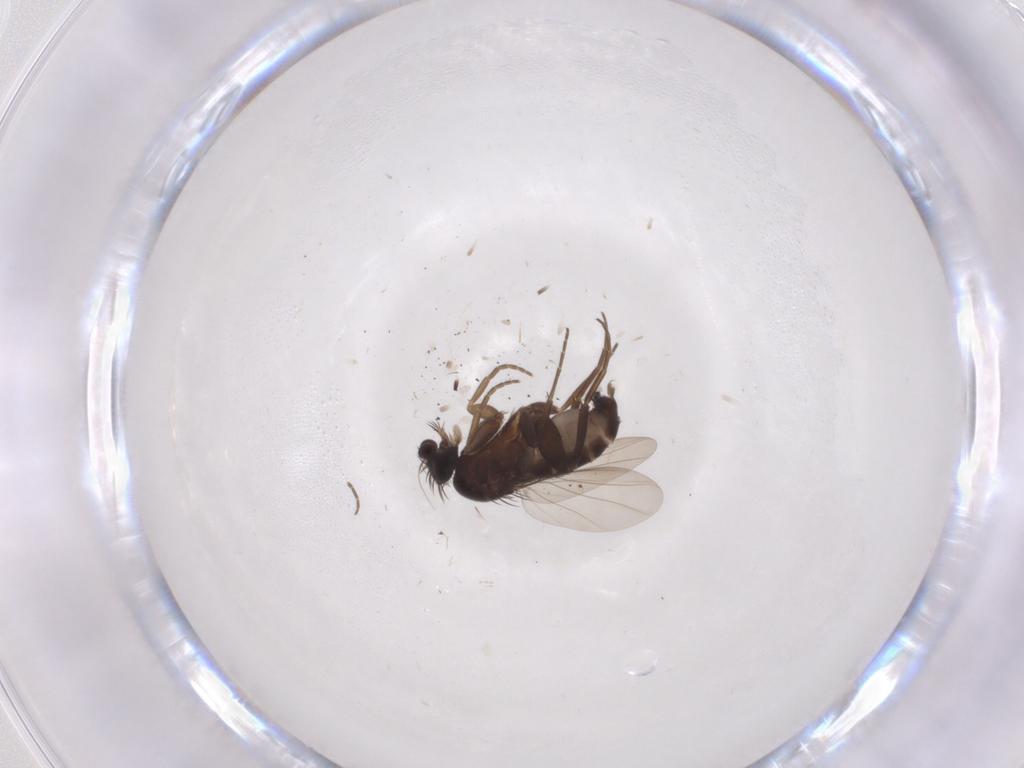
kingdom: Animalia
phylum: Arthropoda
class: Insecta
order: Diptera
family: Phoridae
